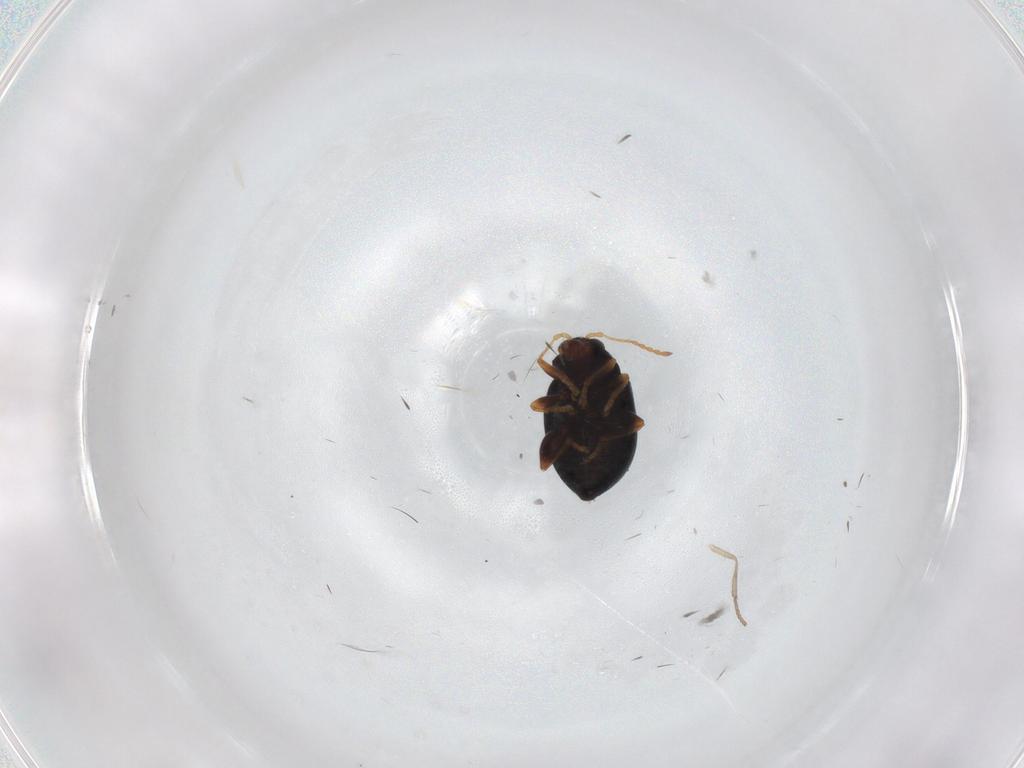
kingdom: Animalia
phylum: Arthropoda
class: Insecta
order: Coleoptera
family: Chrysomelidae
